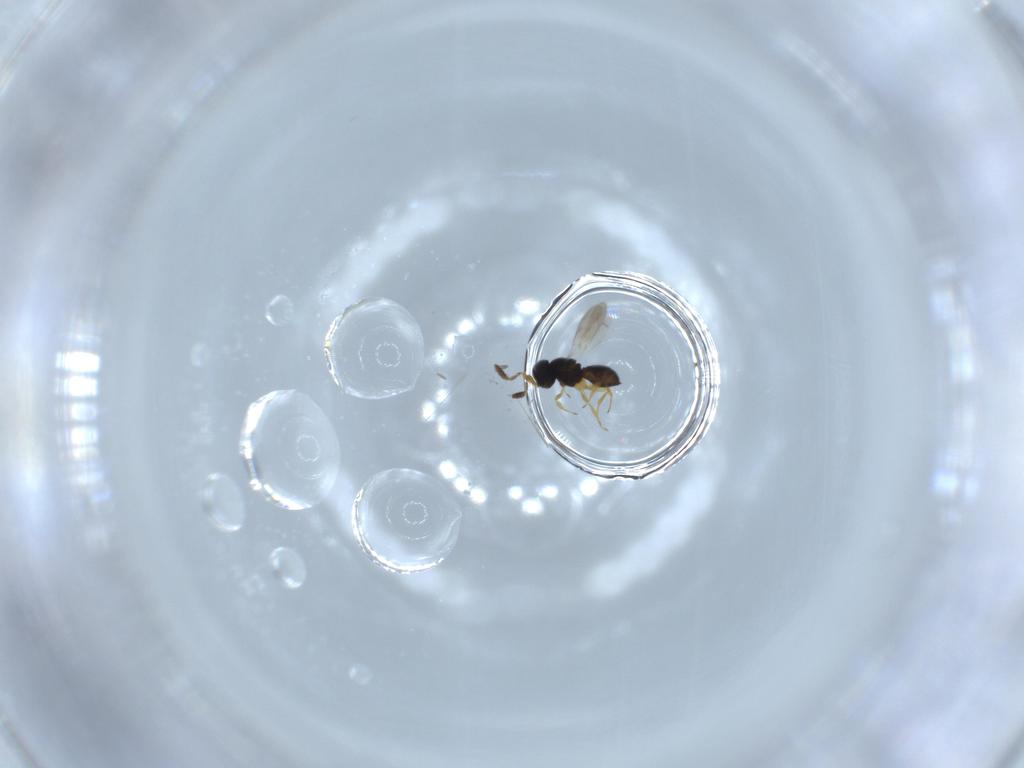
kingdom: Animalia
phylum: Arthropoda
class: Insecta
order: Hymenoptera
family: Scelionidae
